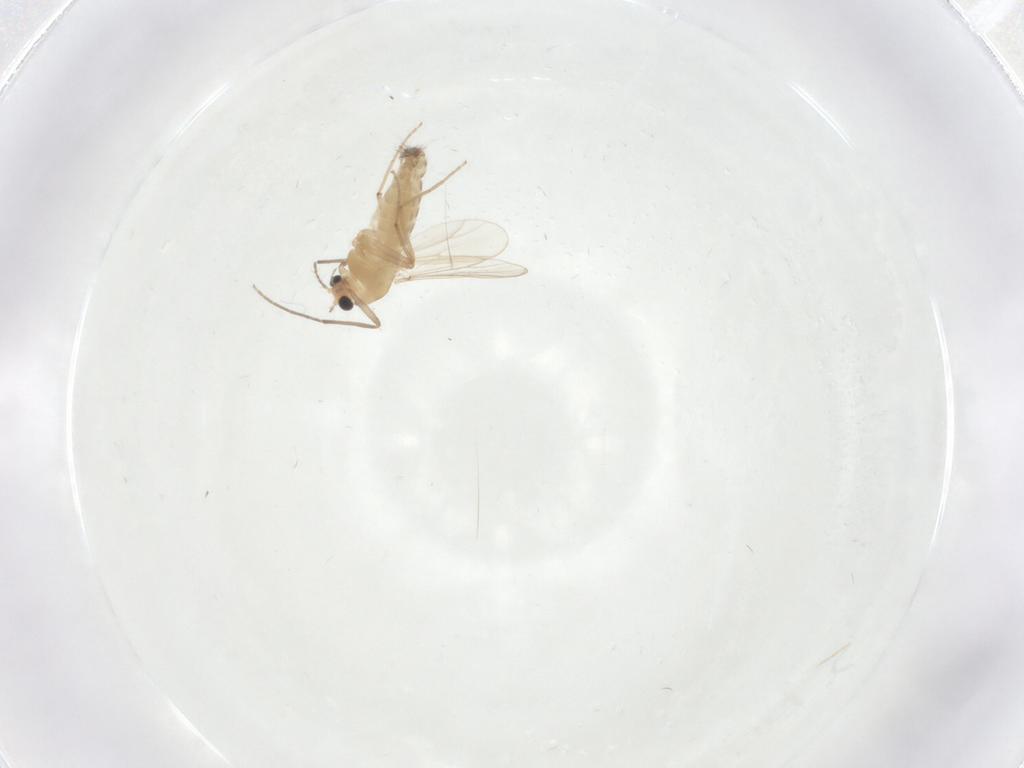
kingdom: Animalia
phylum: Arthropoda
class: Insecta
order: Diptera
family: Chironomidae
